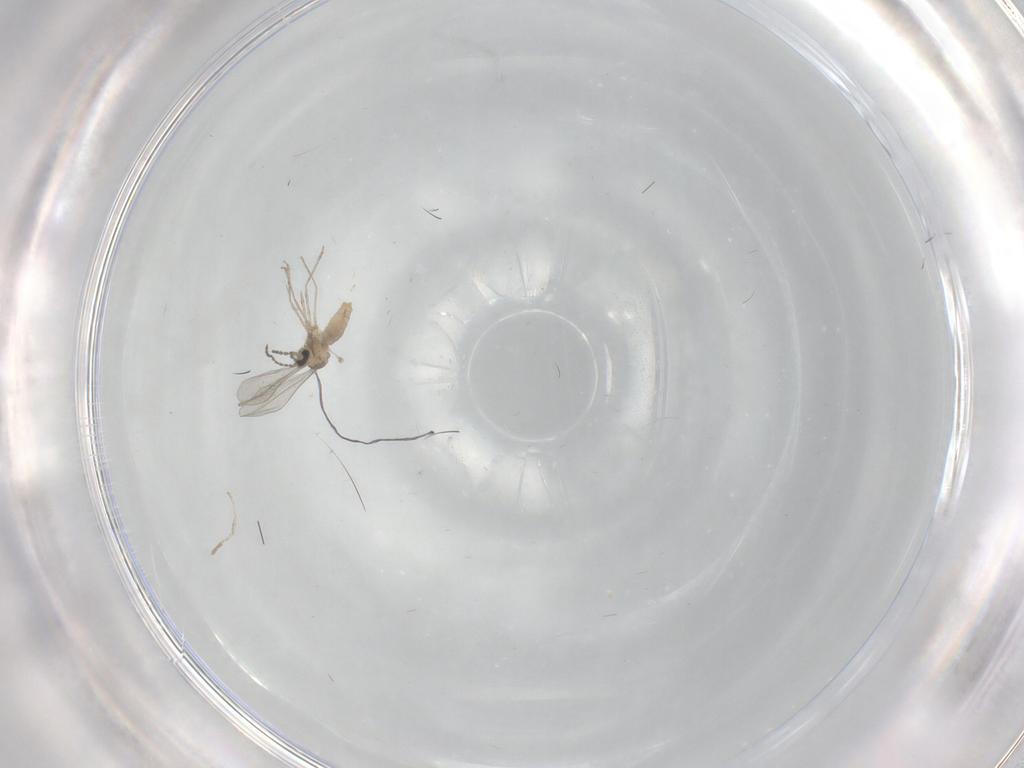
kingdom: Animalia
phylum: Arthropoda
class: Insecta
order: Diptera
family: Cecidomyiidae
